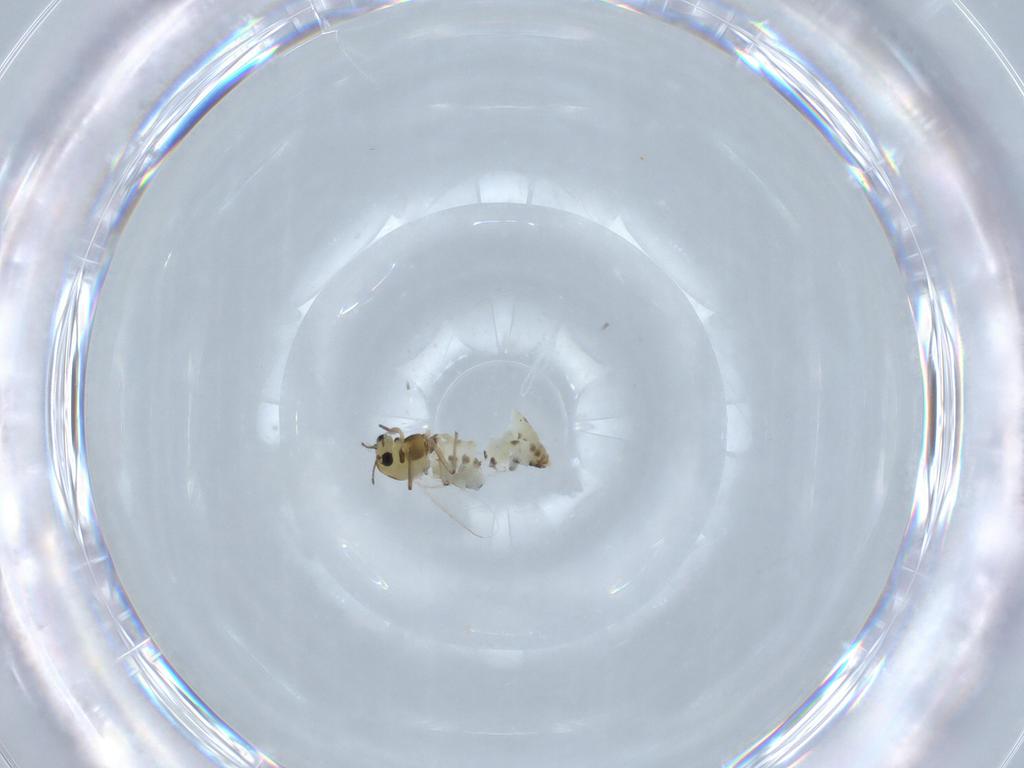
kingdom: Animalia
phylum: Arthropoda
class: Insecta
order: Diptera
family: Chironomidae
